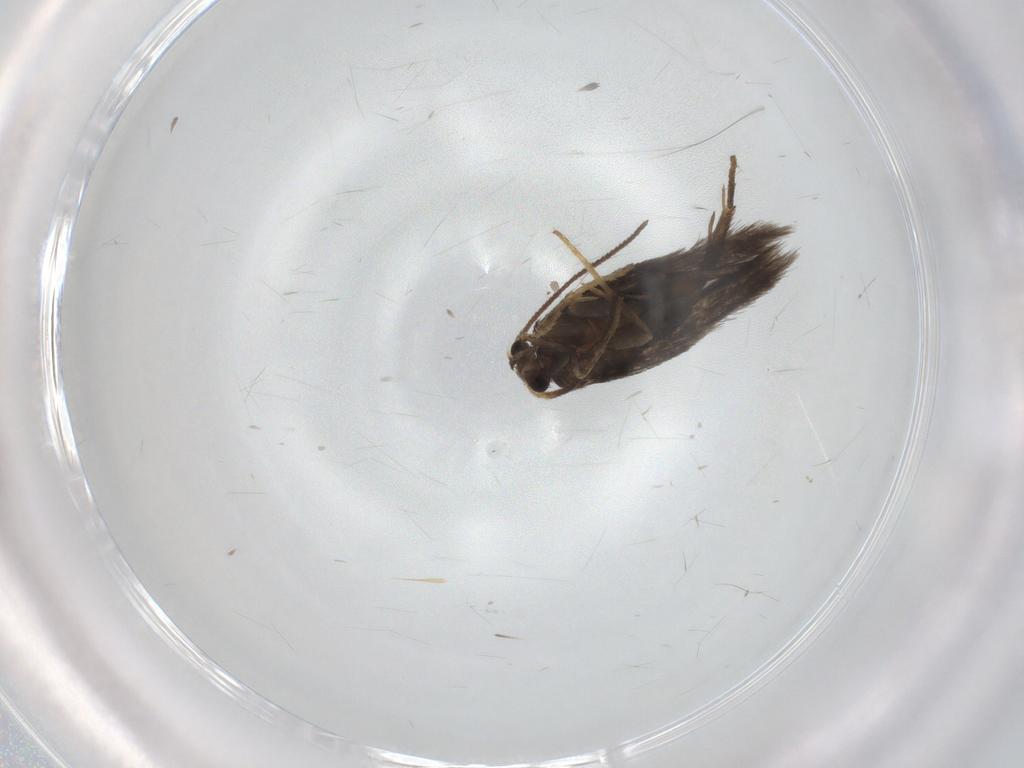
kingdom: Animalia
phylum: Arthropoda
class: Insecta
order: Lepidoptera
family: Nepticulidae
